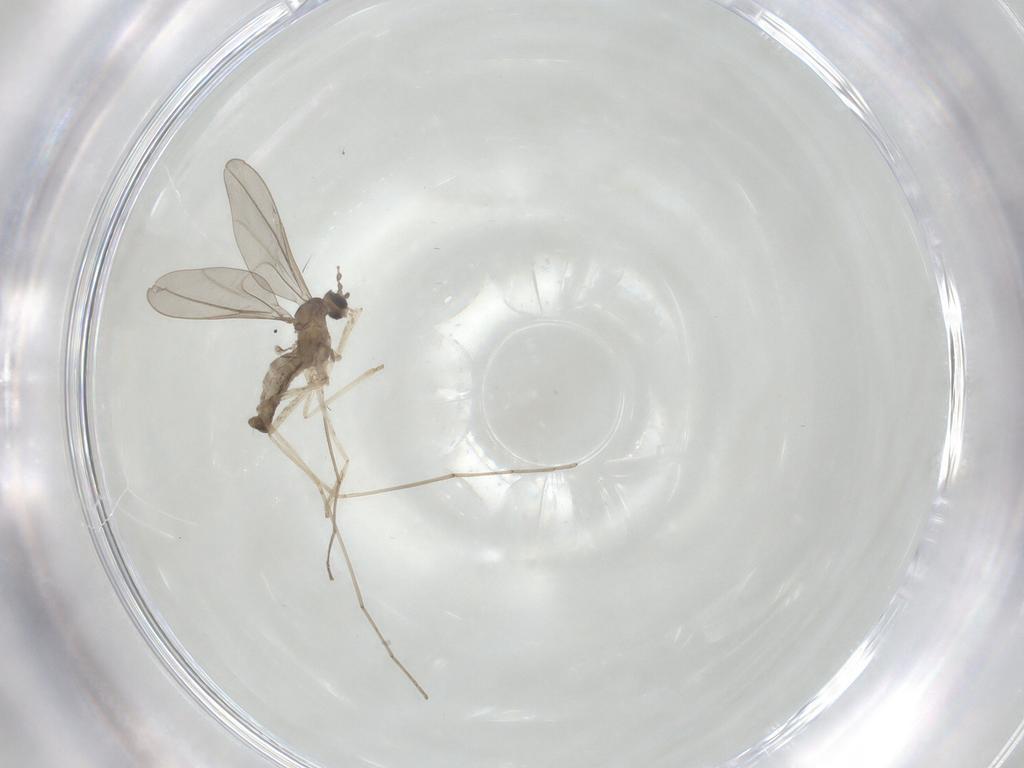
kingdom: Animalia
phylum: Arthropoda
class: Insecta
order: Diptera
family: Cecidomyiidae
